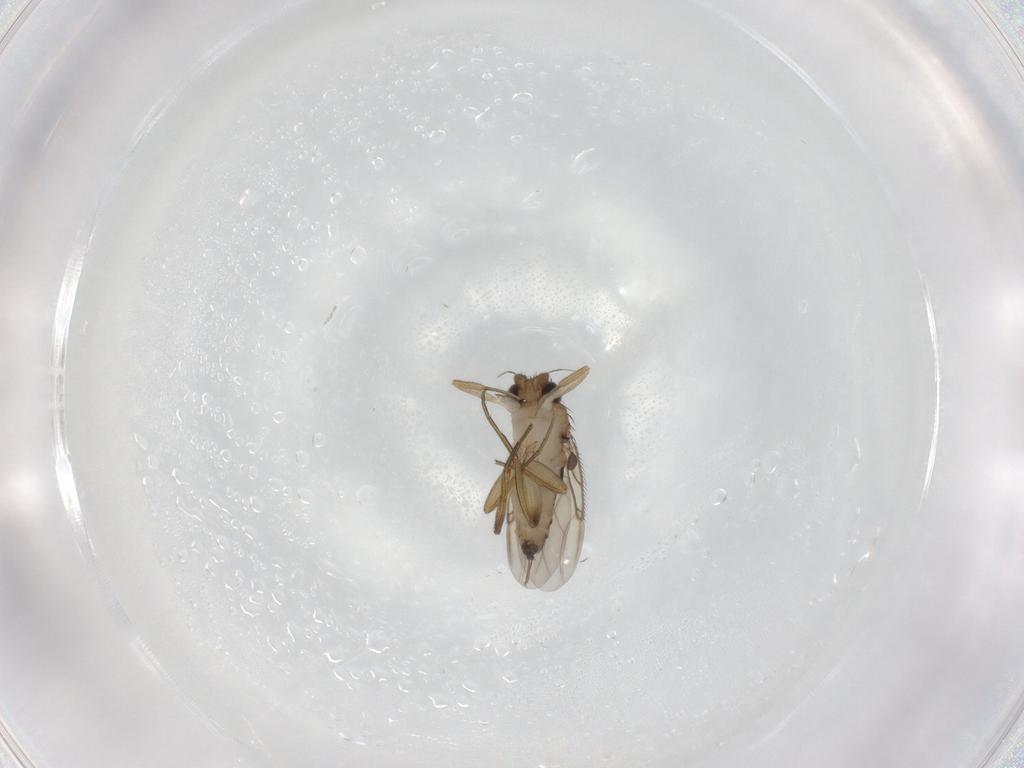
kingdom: Animalia
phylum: Arthropoda
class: Insecta
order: Diptera
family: Phoridae
